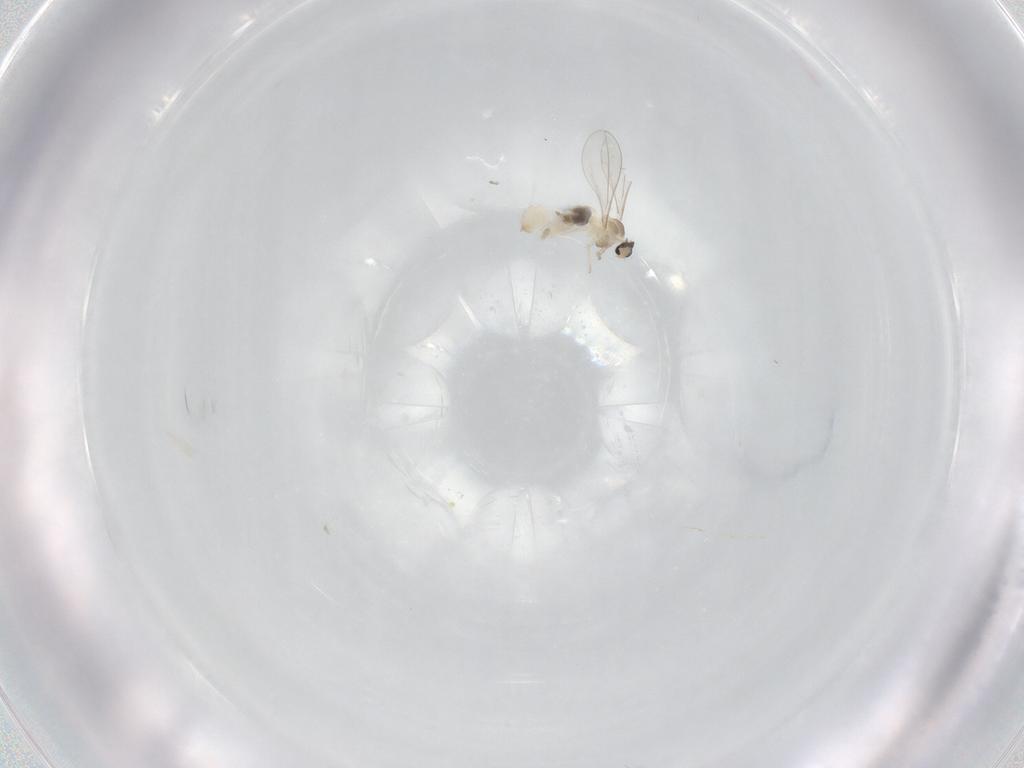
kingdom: Animalia
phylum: Arthropoda
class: Insecta
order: Diptera
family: Cecidomyiidae
